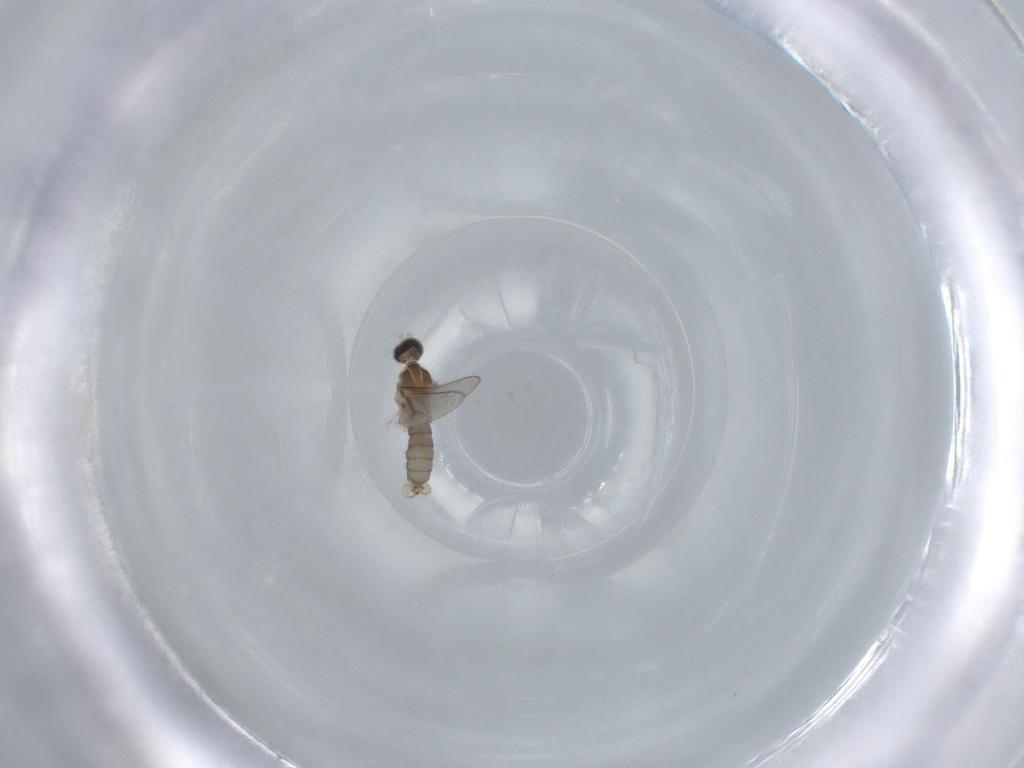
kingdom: Animalia
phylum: Arthropoda
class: Insecta
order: Diptera
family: Cecidomyiidae
